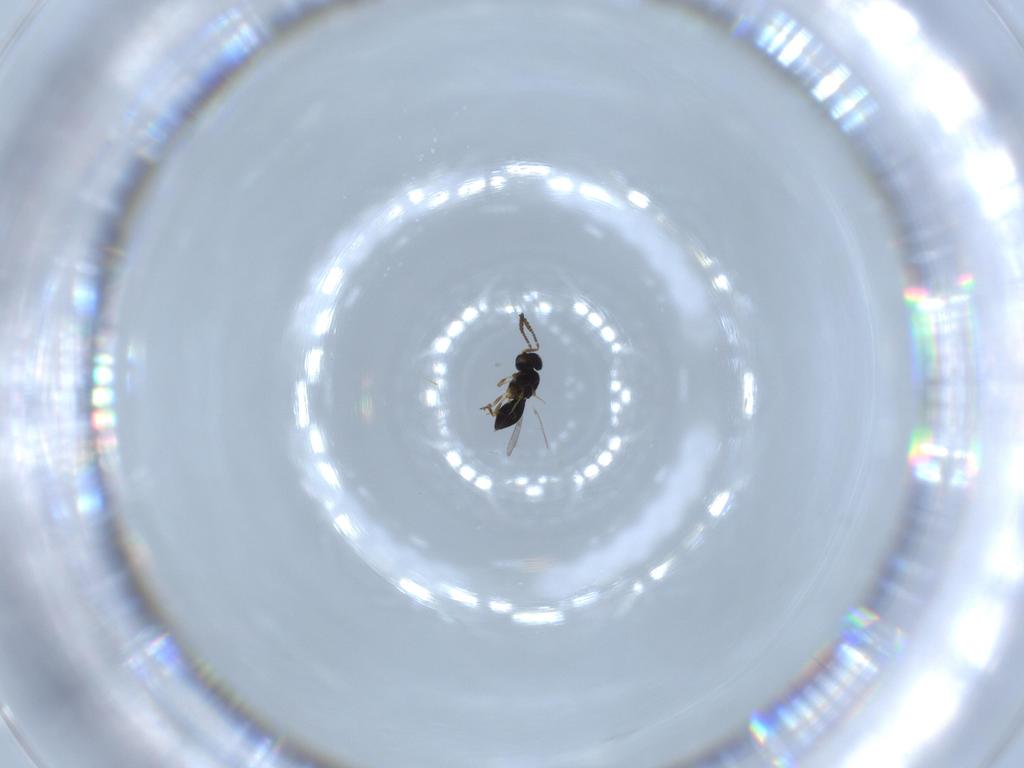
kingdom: Animalia
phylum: Arthropoda
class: Insecta
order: Hymenoptera
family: Scelionidae
